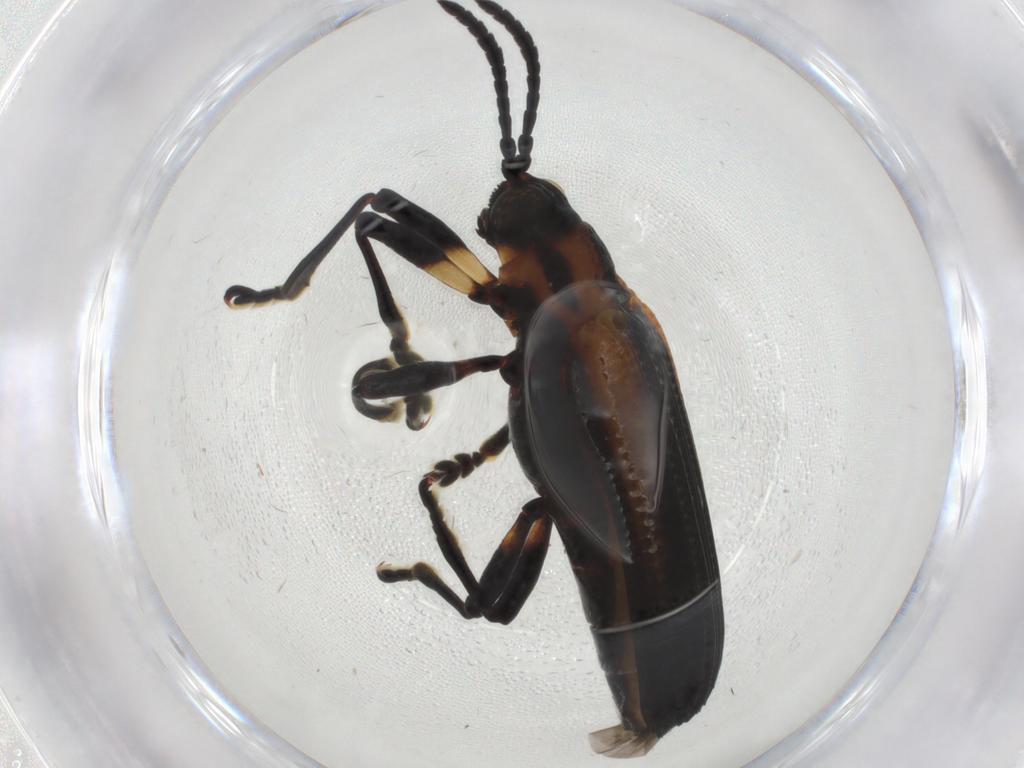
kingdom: Animalia
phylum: Arthropoda
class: Insecta
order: Coleoptera
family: Chrysomelidae
